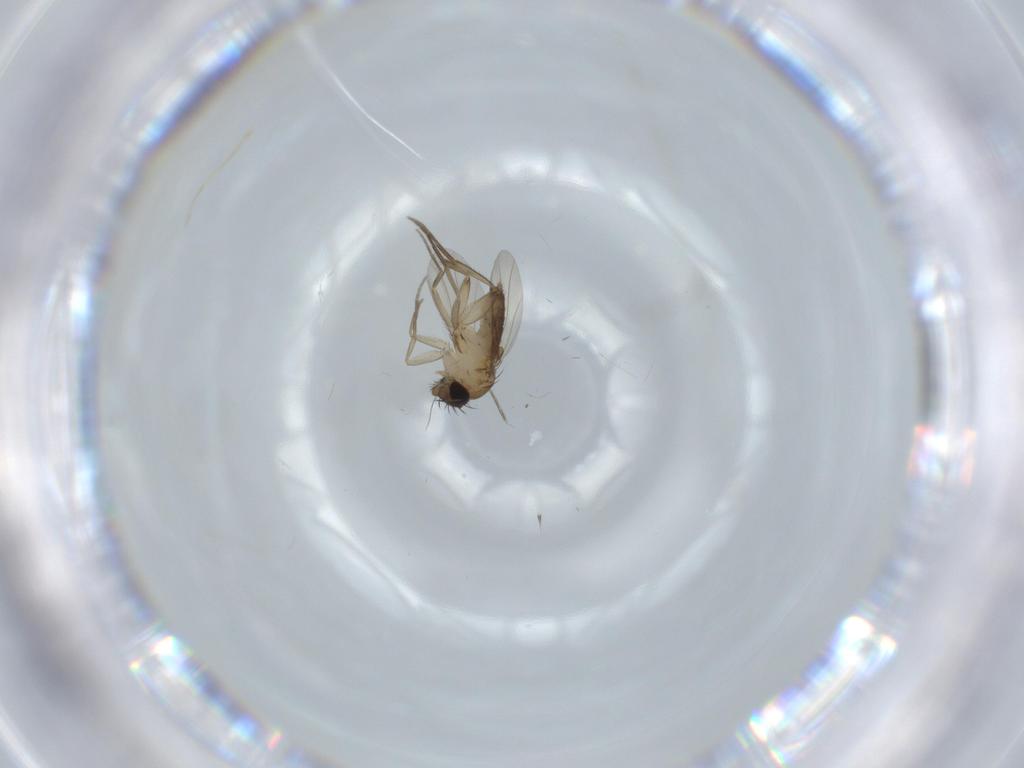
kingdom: Animalia
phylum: Arthropoda
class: Insecta
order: Diptera
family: Phoridae
